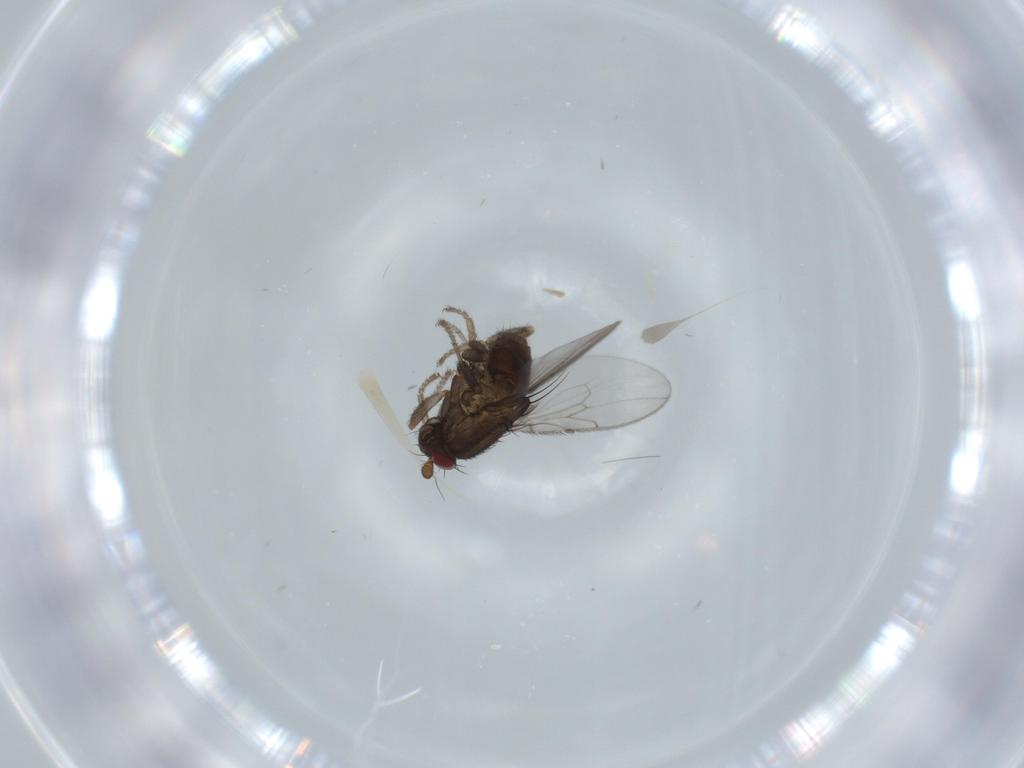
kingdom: Animalia
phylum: Arthropoda
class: Insecta
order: Diptera
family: Sphaeroceridae
